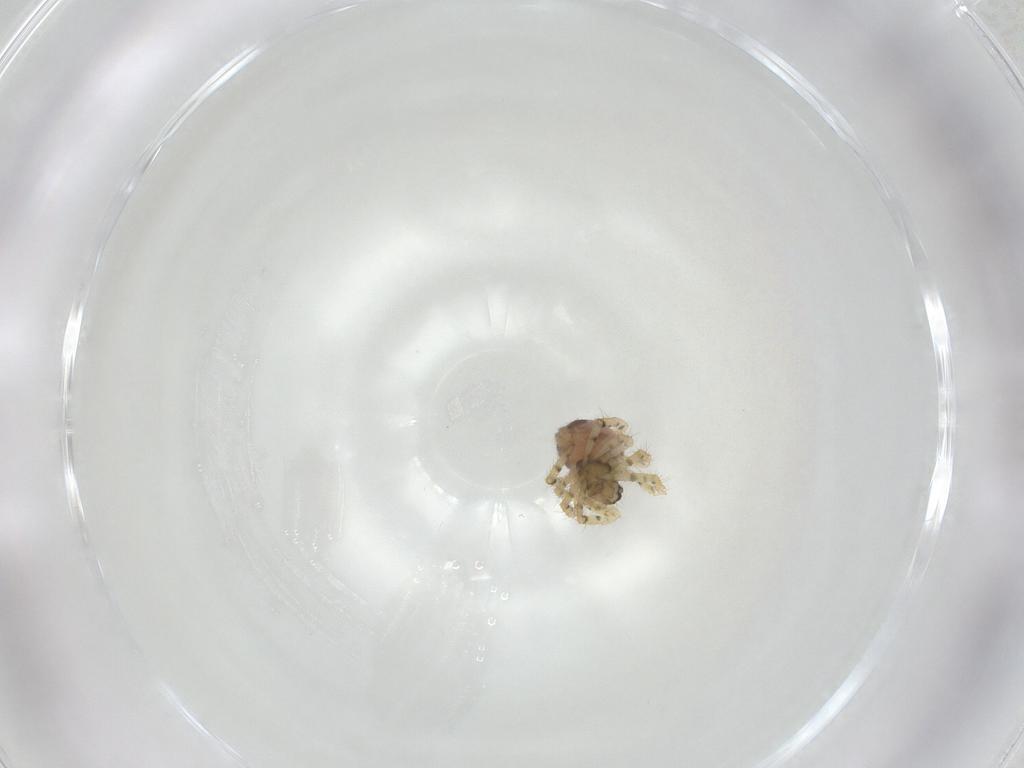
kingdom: Animalia
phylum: Arthropoda
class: Arachnida
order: Araneae
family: Theridiidae
